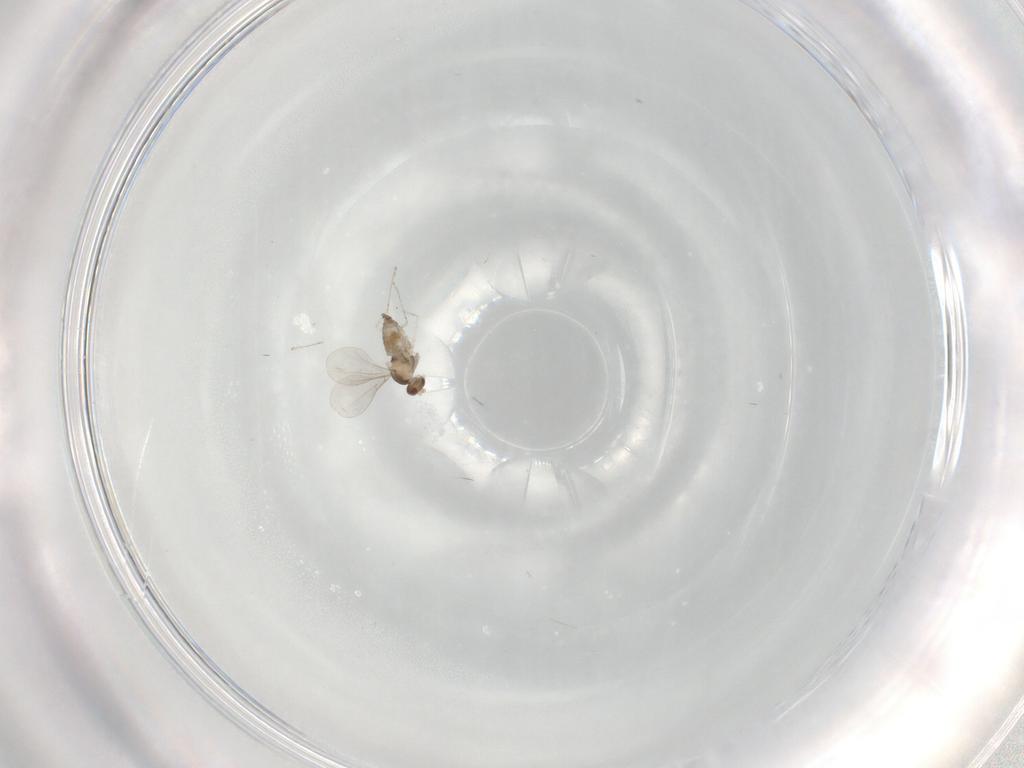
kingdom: Animalia
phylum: Arthropoda
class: Insecta
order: Diptera
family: Cecidomyiidae
